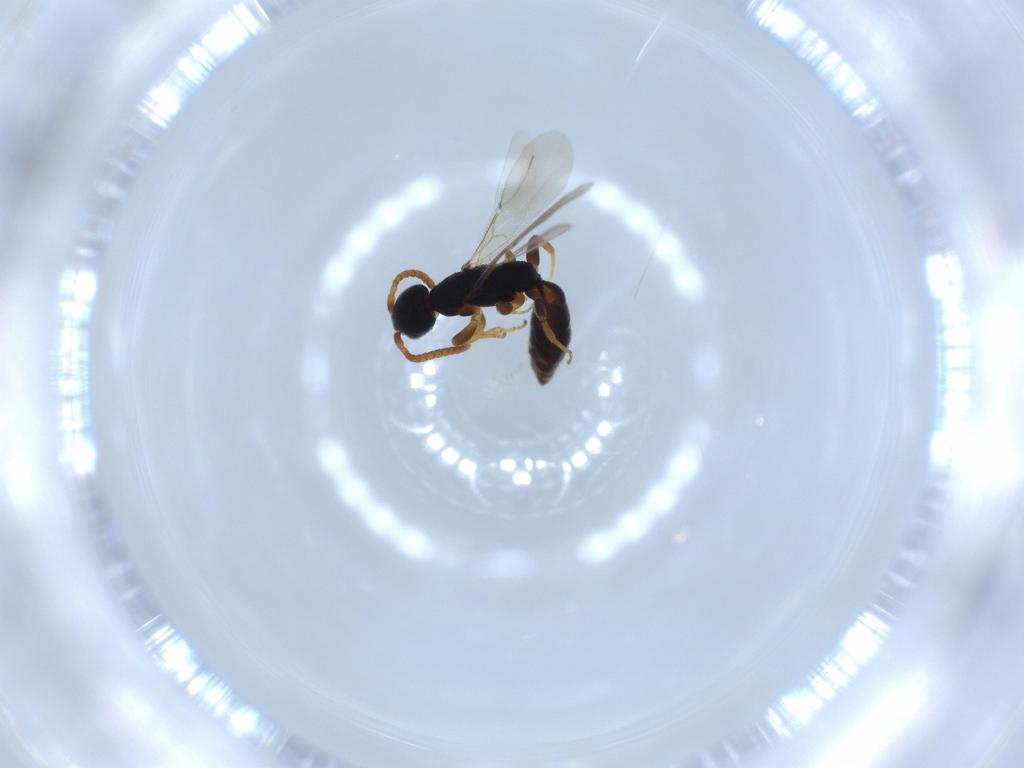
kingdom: Animalia
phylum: Arthropoda
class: Insecta
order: Hymenoptera
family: Bethylidae
